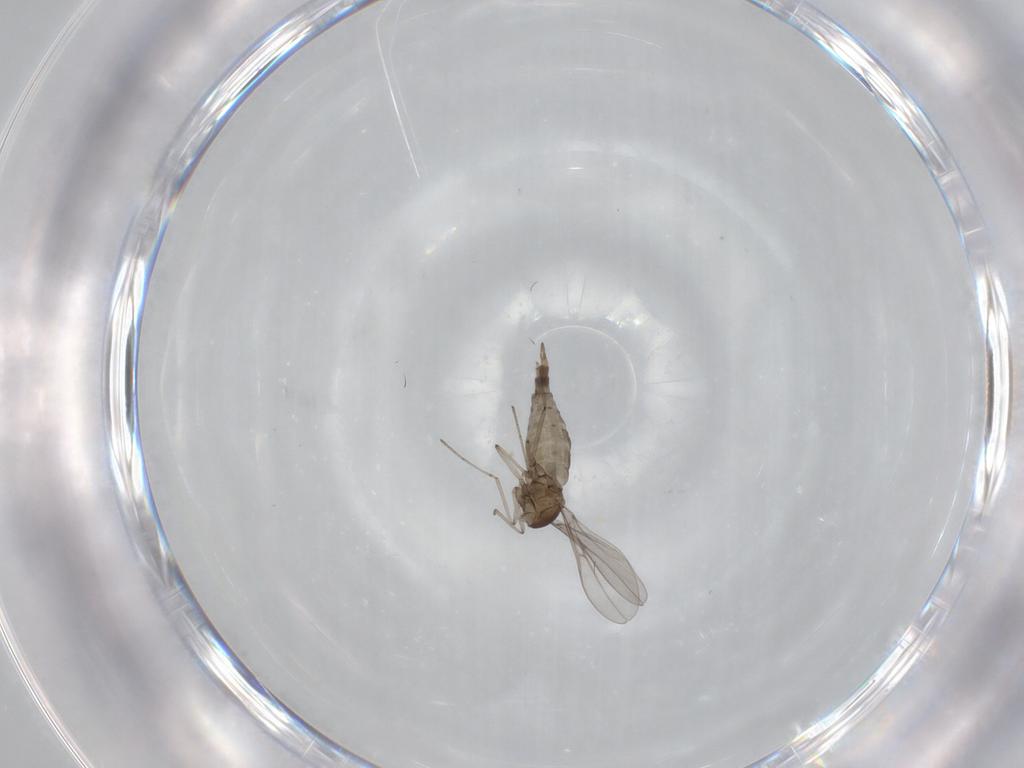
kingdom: Animalia
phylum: Arthropoda
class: Insecta
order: Diptera
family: Cecidomyiidae
